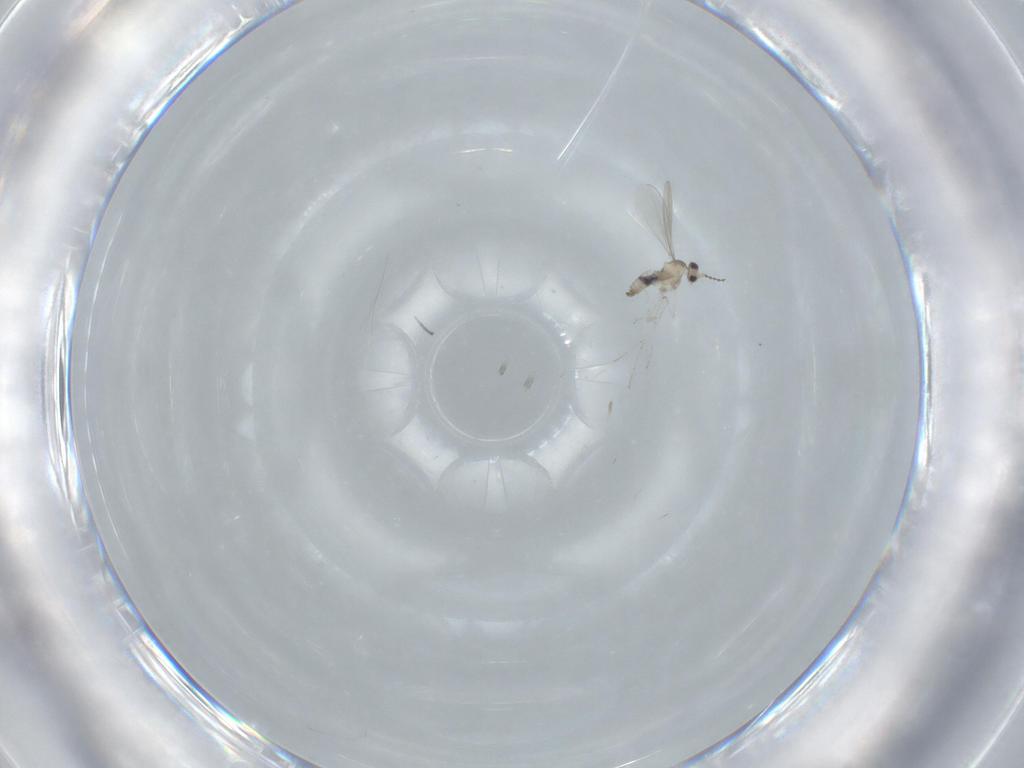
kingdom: Animalia
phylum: Arthropoda
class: Insecta
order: Diptera
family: Cecidomyiidae
